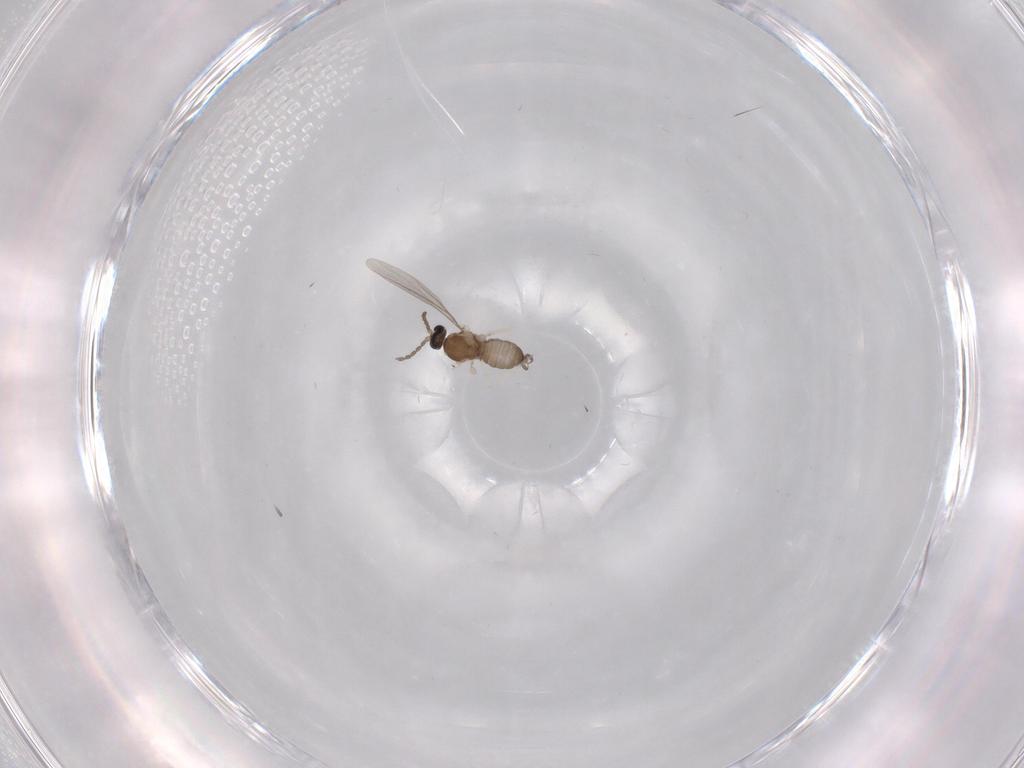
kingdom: Animalia
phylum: Arthropoda
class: Insecta
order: Diptera
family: Cecidomyiidae
